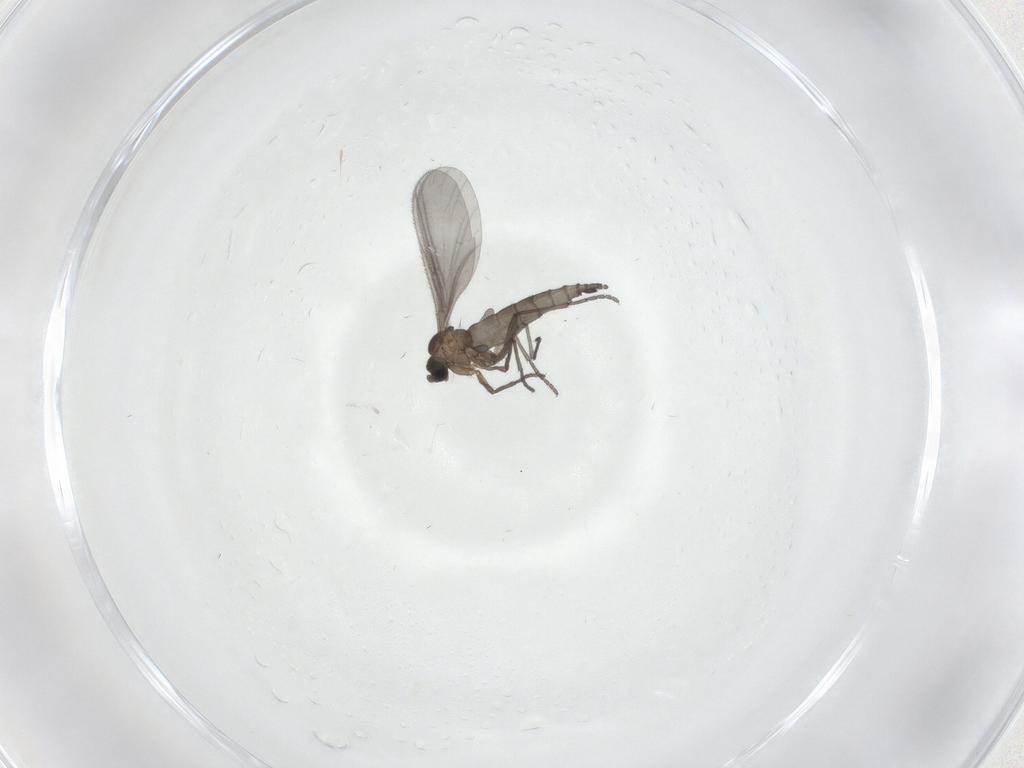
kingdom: Animalia
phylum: Arthropoda
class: Insecta
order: Diptera
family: Sciaridae
